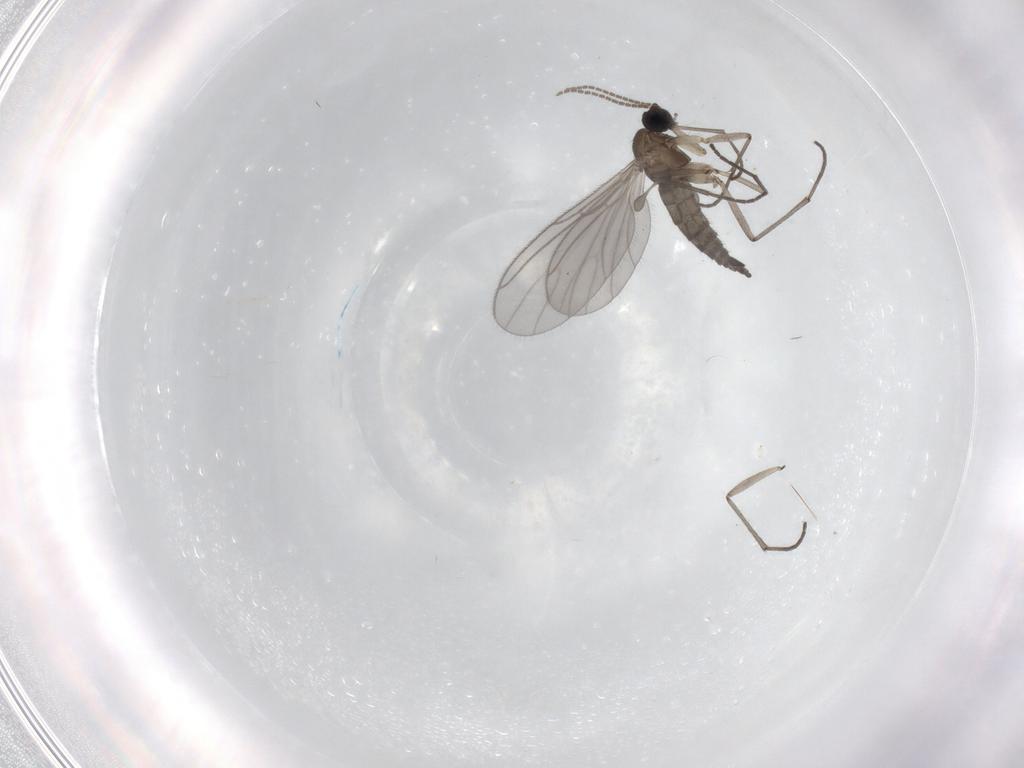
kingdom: Animalia
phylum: Arthropoda
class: Insecta
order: Diptera
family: Sciaridae
